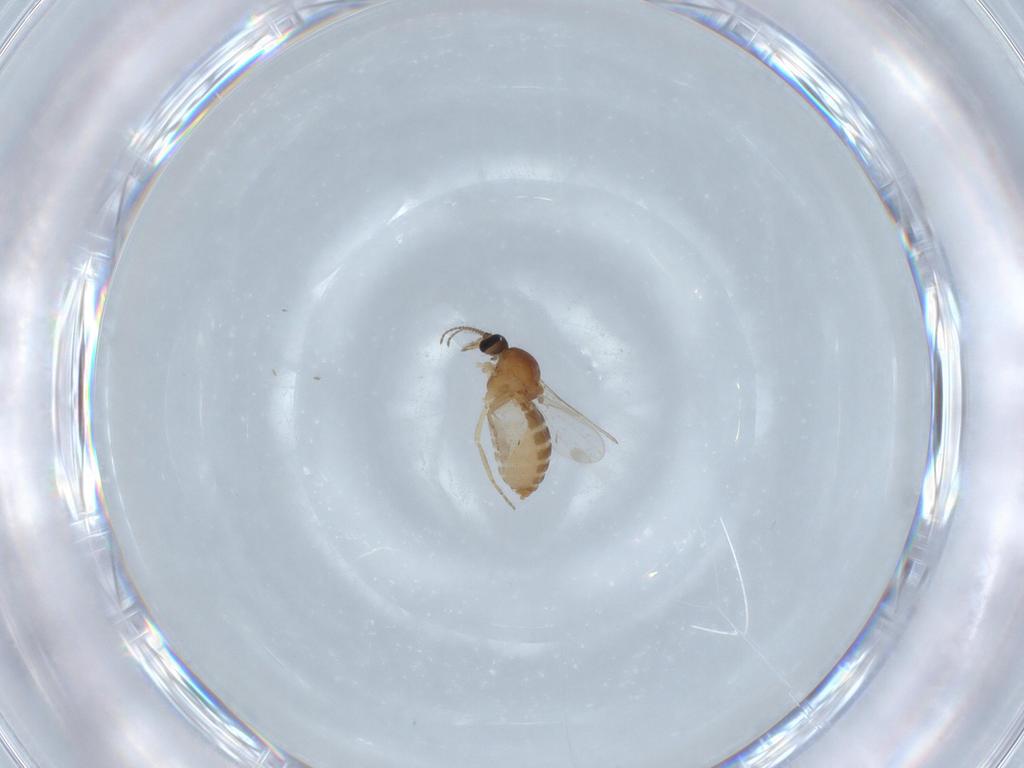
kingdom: Animalia
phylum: Arthropoda
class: Insecta
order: Diptera
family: Ceratopogonidae
